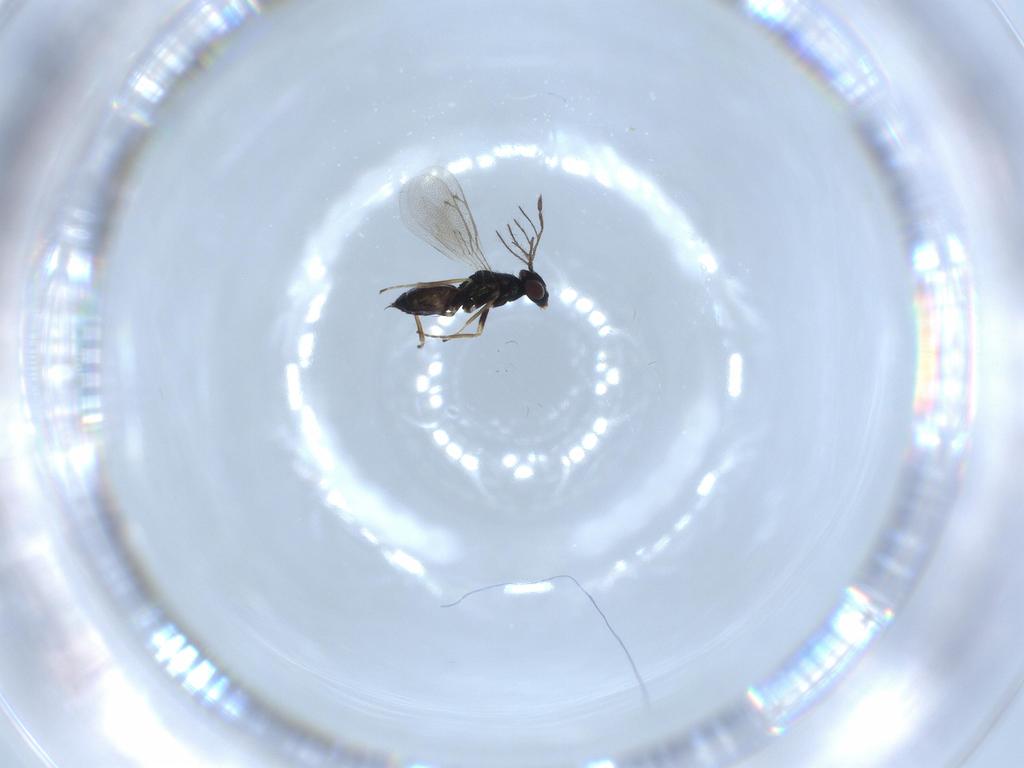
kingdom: Animalia
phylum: Arthropoda
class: Insecta
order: Hymenoptera
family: Eulophidae
